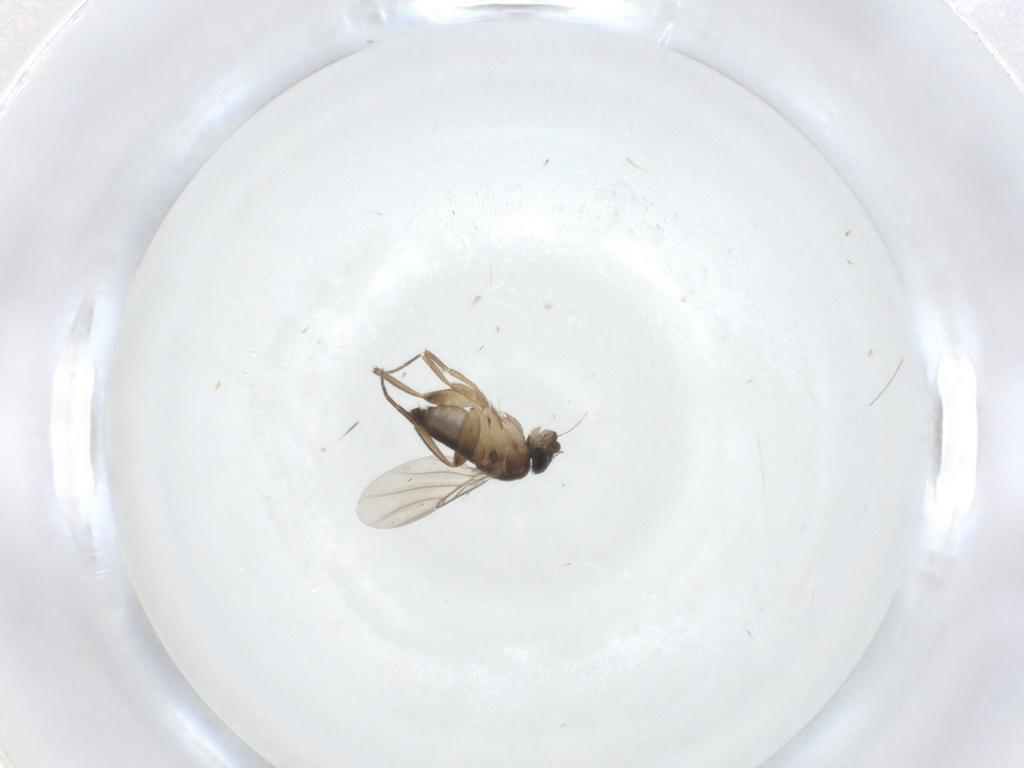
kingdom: Animalia
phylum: Arthropoda
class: Insecta
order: Diptera
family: Phoridae
